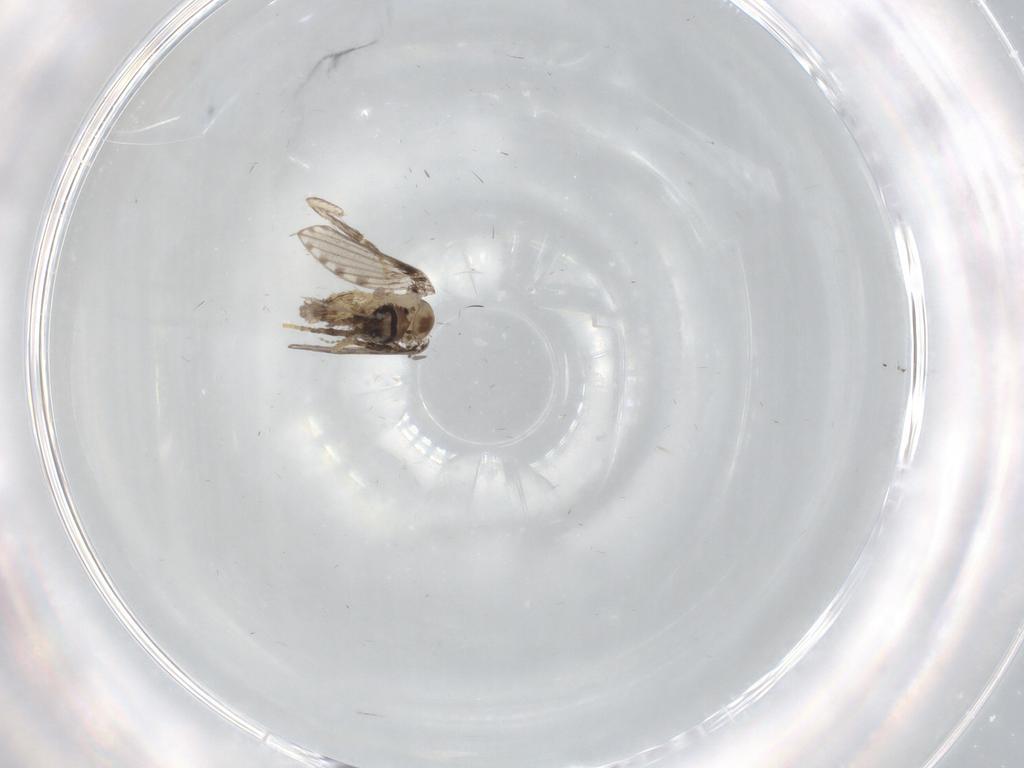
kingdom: Animalia
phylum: Arthropoda
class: Insecta
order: Diptera
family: Psychodidae
